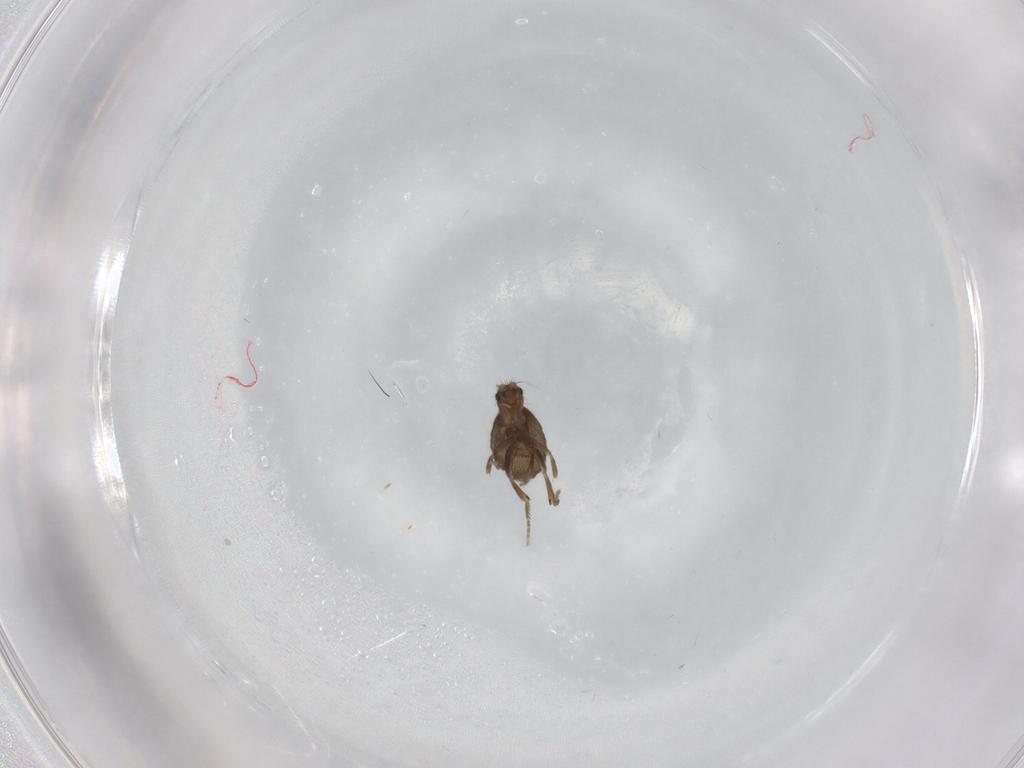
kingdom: Animalia
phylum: Arthropoda
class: Insecta
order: Diptera
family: Phoridae
